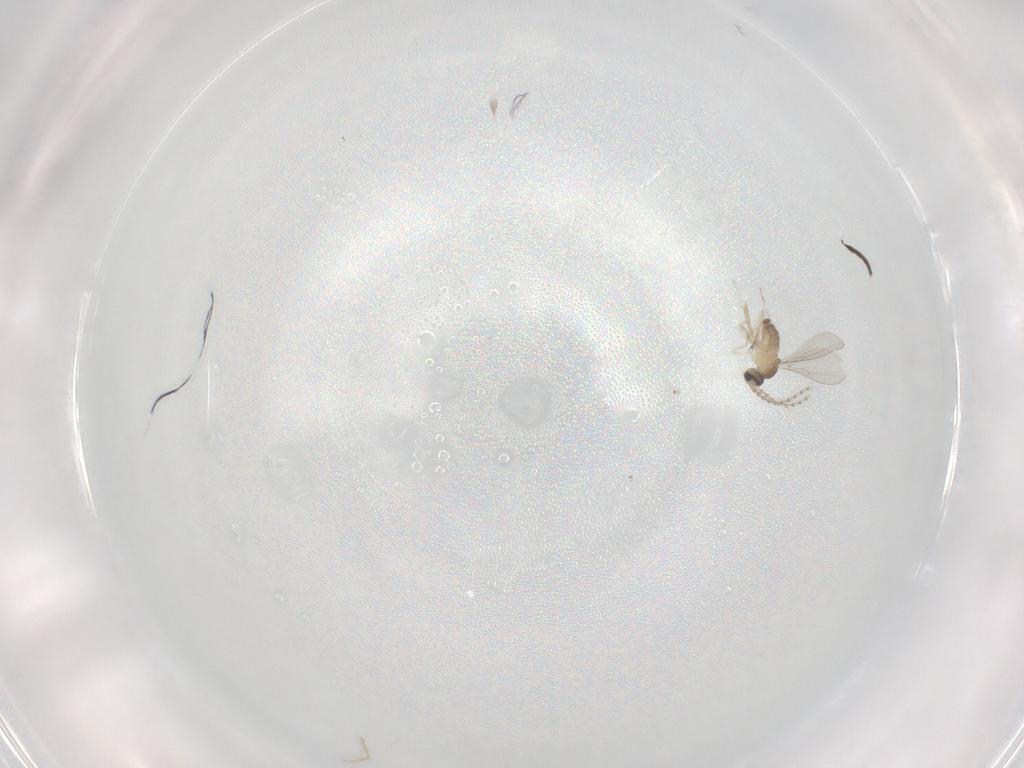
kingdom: Animalia
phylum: Arthropoda
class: Insecta
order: Diptera
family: Sciaridae
